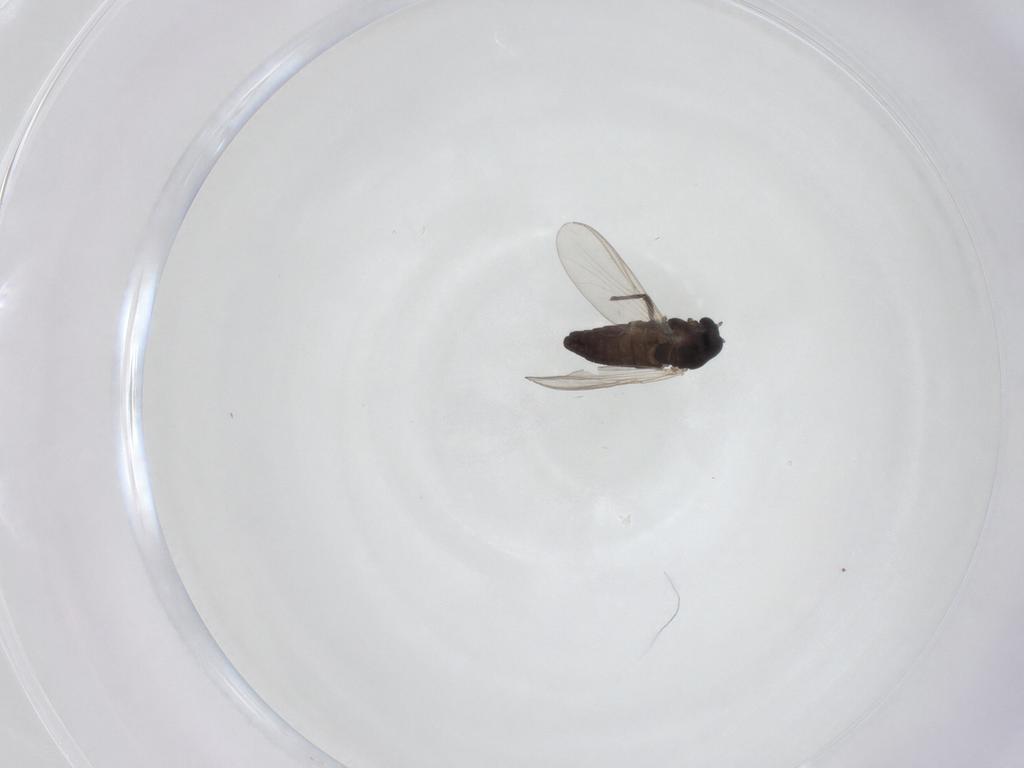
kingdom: Animalia
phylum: Arthropoda
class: Insecta
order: Diptera
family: Chironomidae
